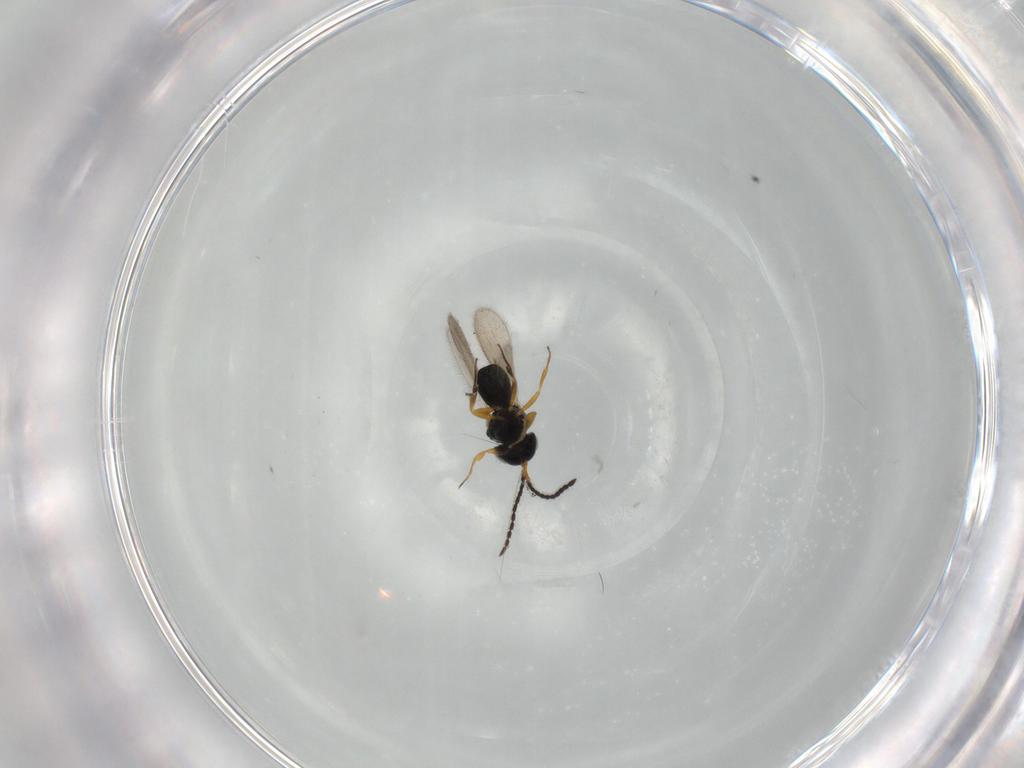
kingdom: Animalia
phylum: Arthropoda
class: Insecta
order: Hymenoptera
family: Scelionidae
